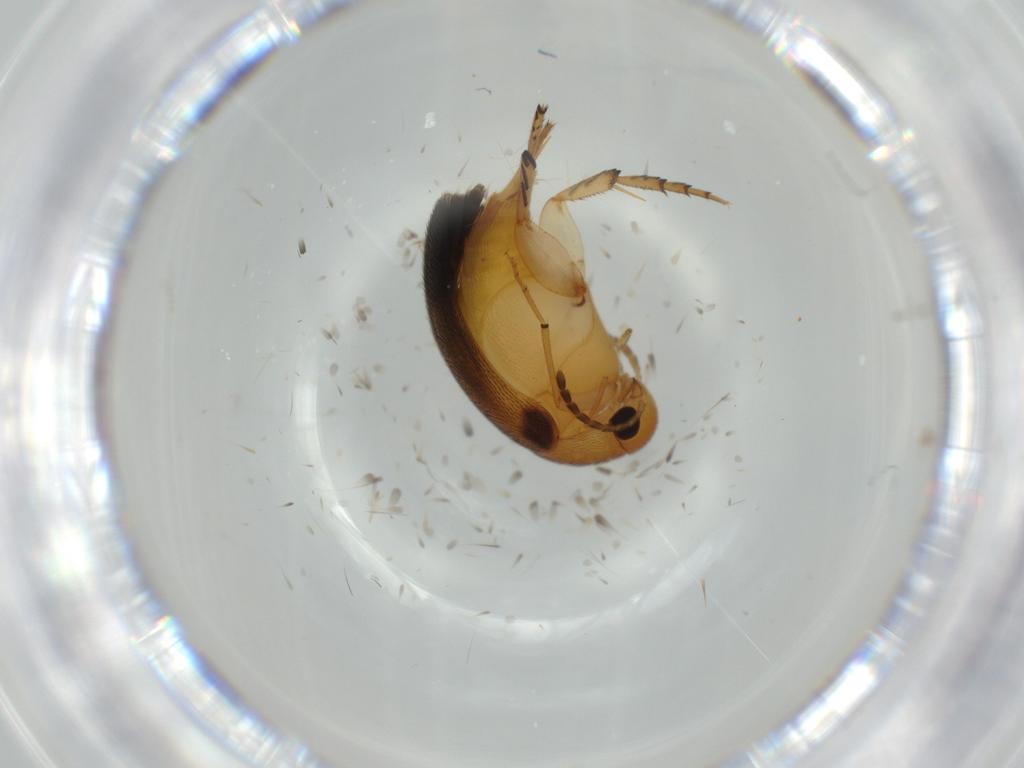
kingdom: Animalia
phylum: Arthropoda
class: Insecta
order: Coleoptera
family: Mordellidae
